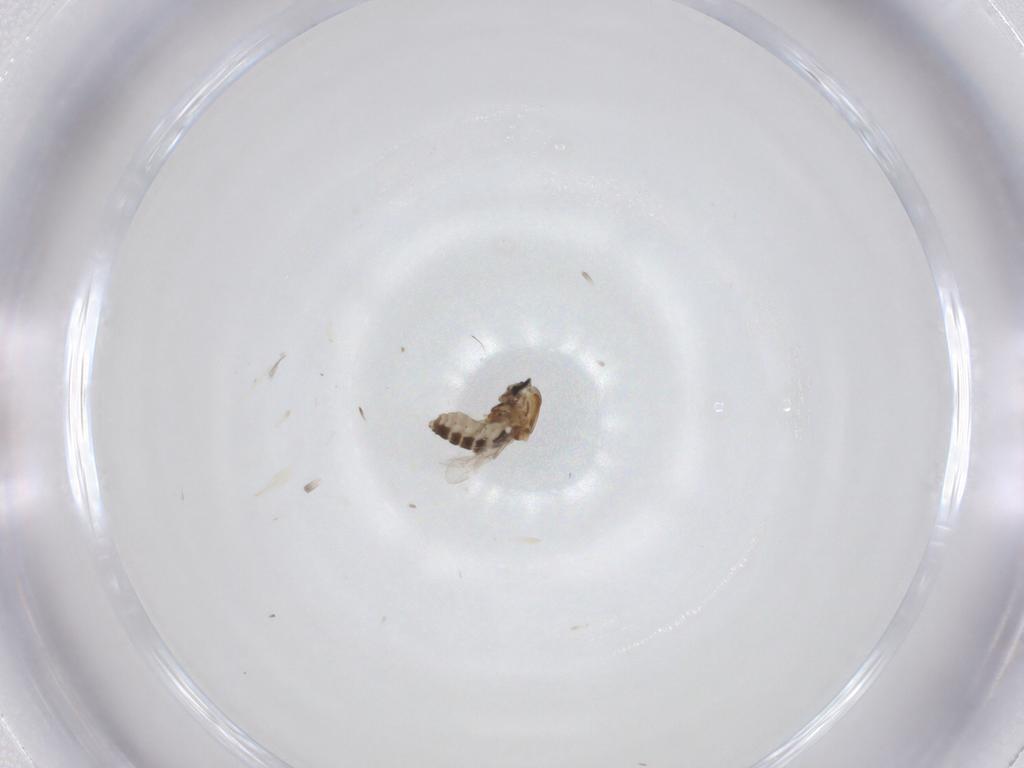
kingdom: Animalia
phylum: Arthropoda
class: Insecta
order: Diptera
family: Ceratopogonidae
